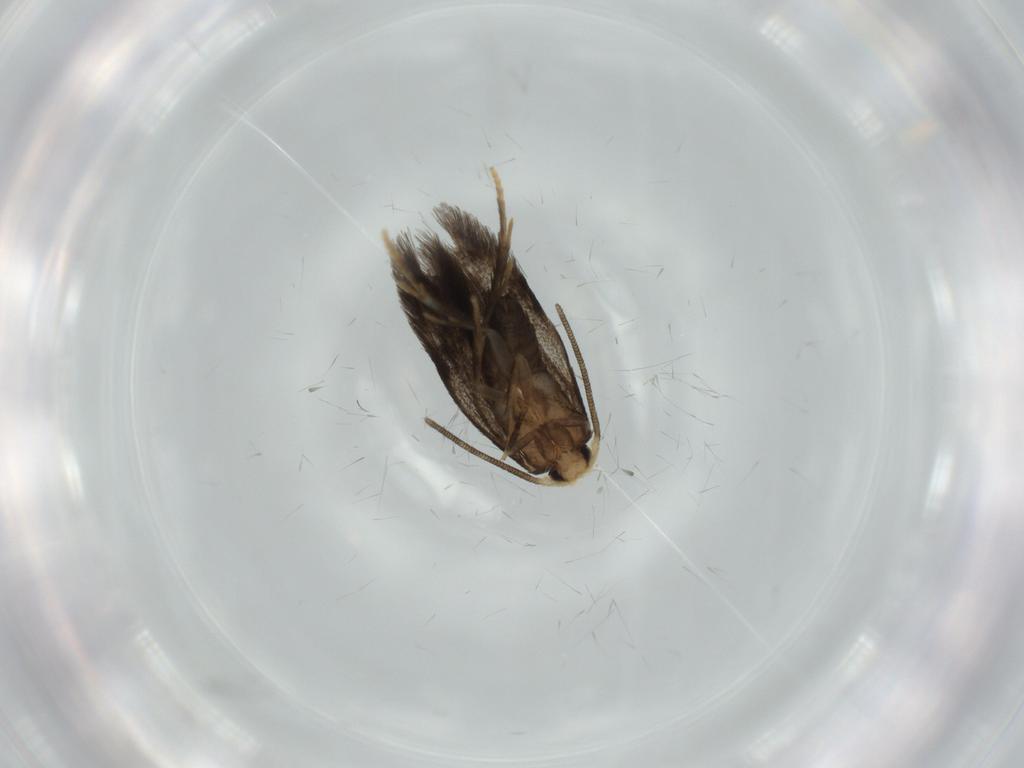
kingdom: Animalia
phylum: Arthropoda
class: Insecta
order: Lepidoptera
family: Nepticulidae
